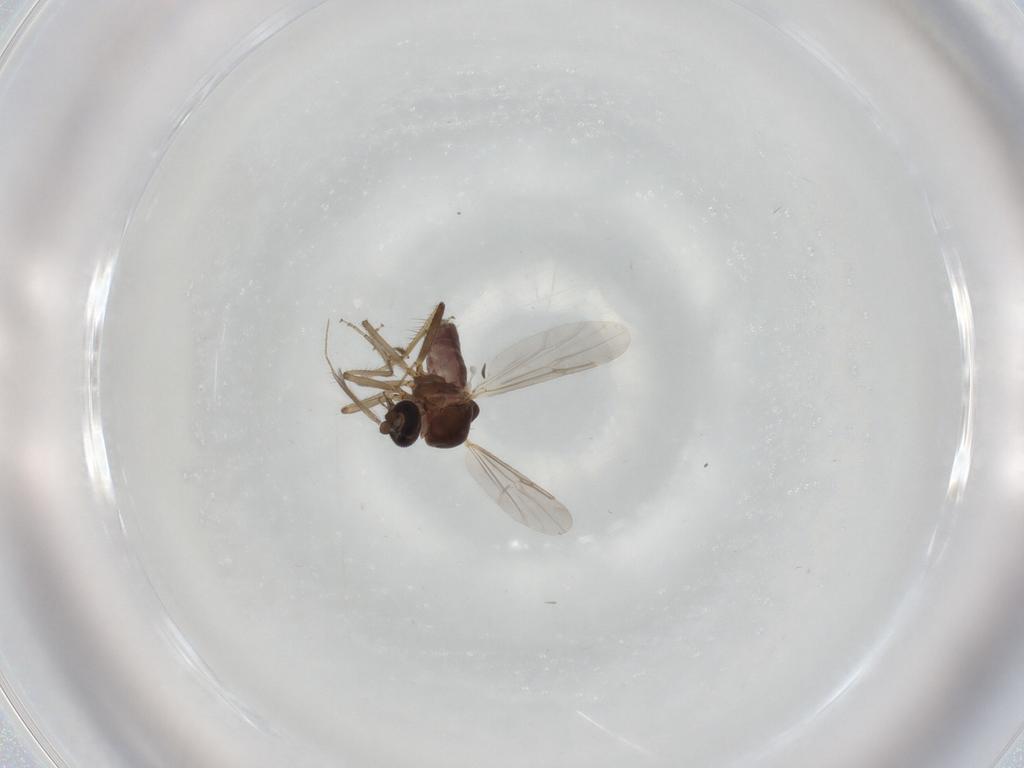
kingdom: Animalia
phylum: Arthropoda
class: Insecta
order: Diptera
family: Ceratopogonidae
